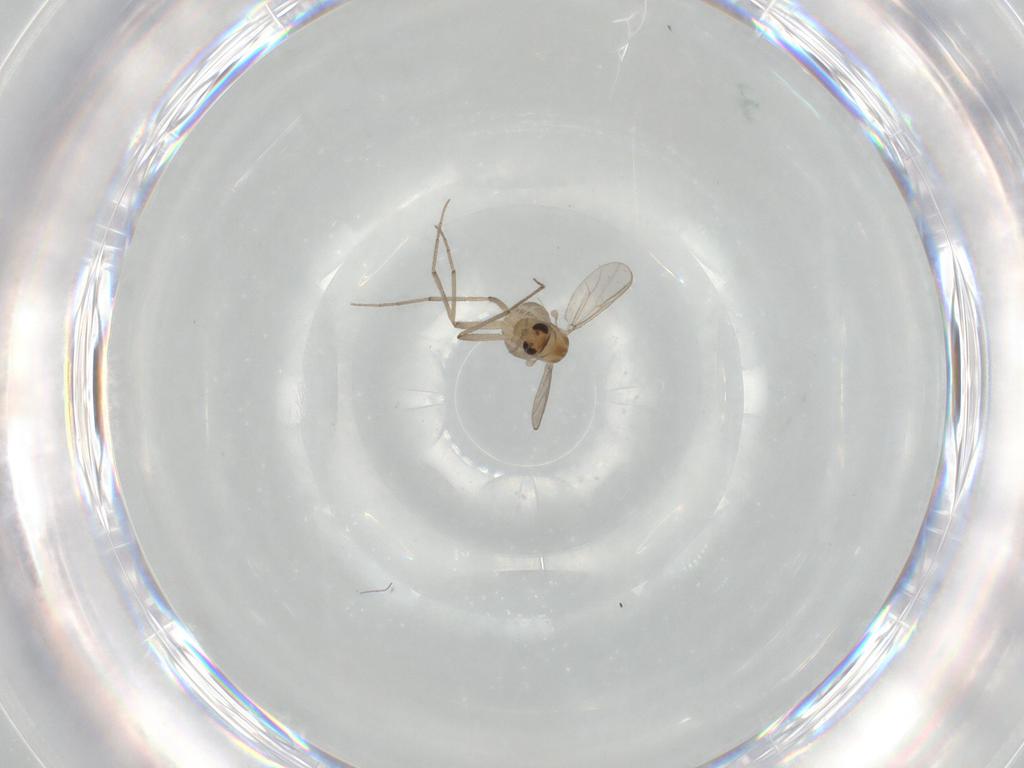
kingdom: Animalia
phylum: Arthropoda
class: Insecta
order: Diptera
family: Chironomidae
